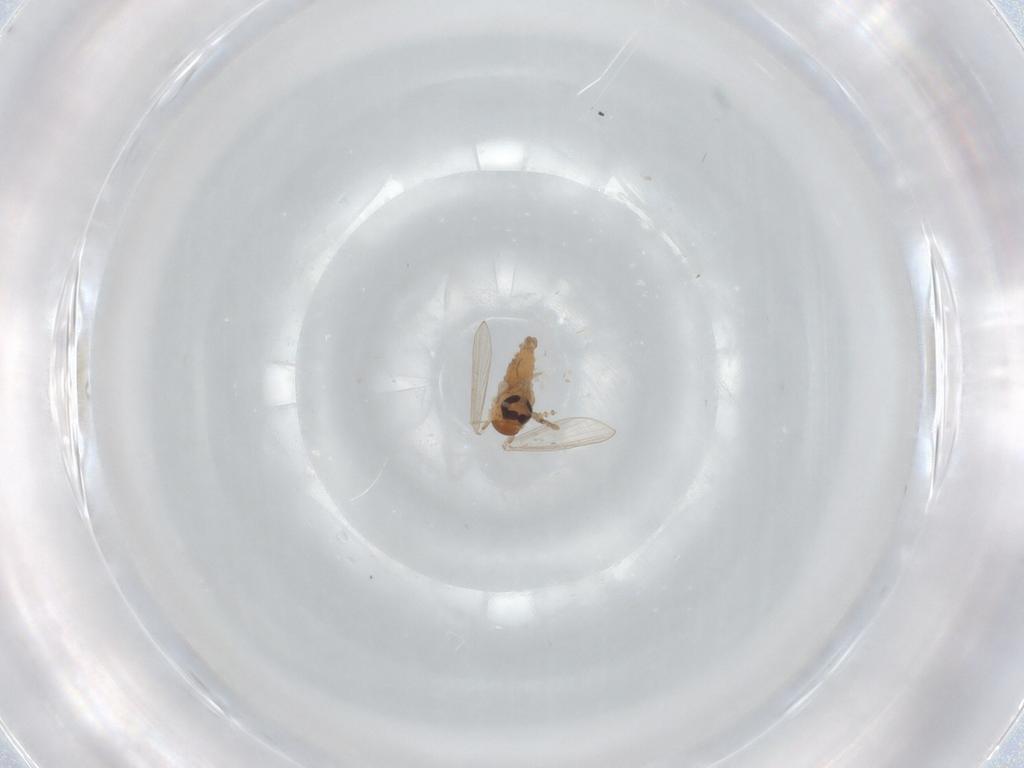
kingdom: Animalia
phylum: Arthropoda
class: Insecta
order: Diptera
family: Psychodidae
